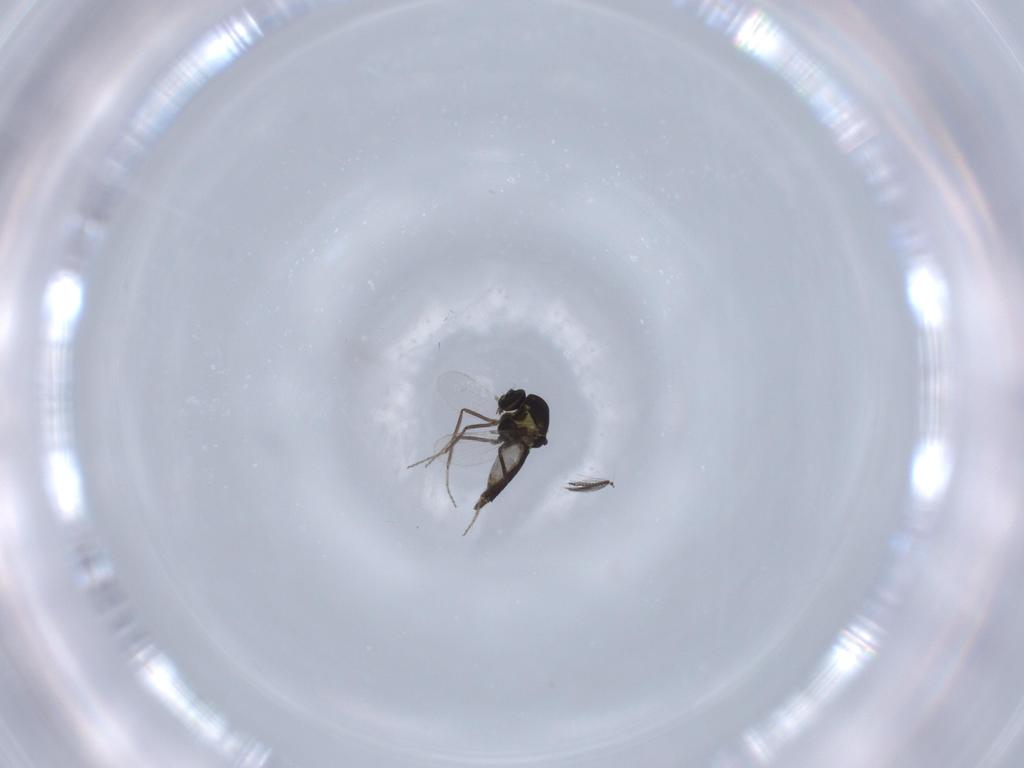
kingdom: Animalia
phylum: Arthropoda
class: Insecta
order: Diptera
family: Ceratopogonidae
